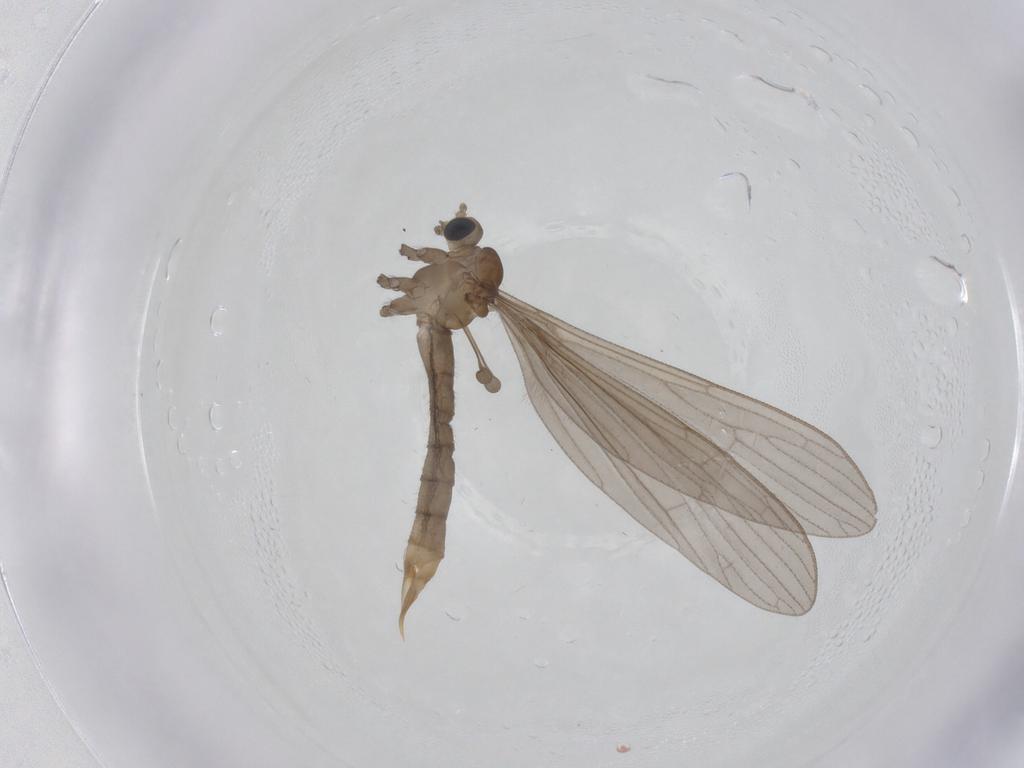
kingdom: Animalia
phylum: Arthropoda
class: Insecta
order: Diptera
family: Limoniidae
